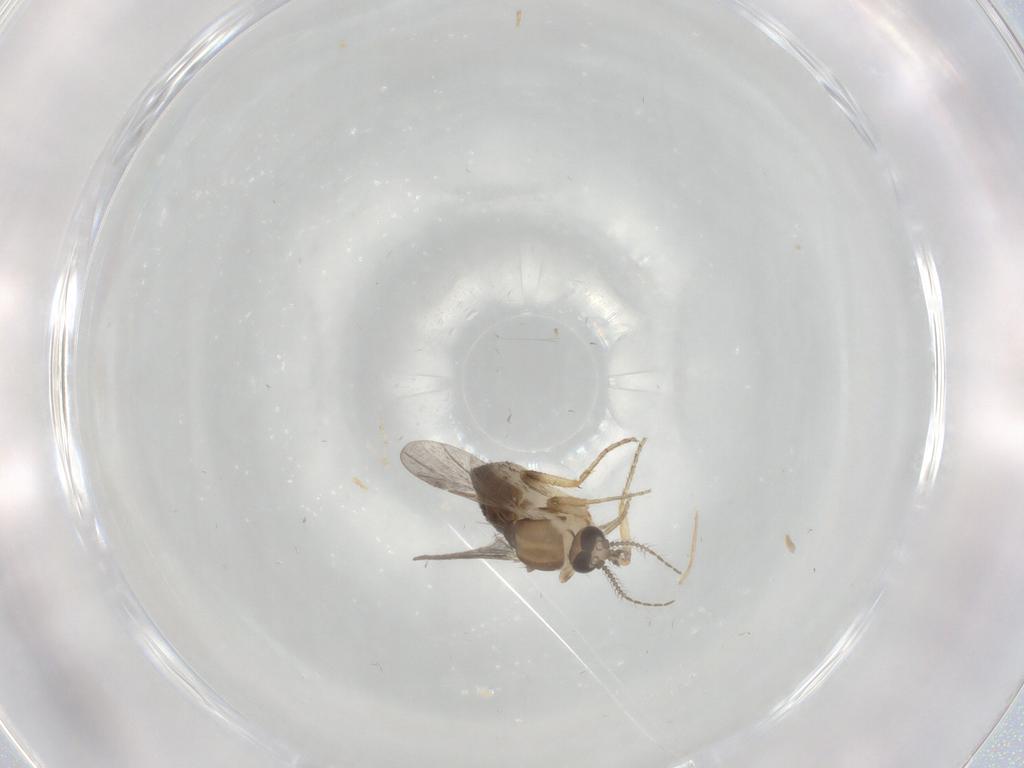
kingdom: Animalia
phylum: Arthropoda
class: Insecta
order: Diptera
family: Ceratopogonidae
